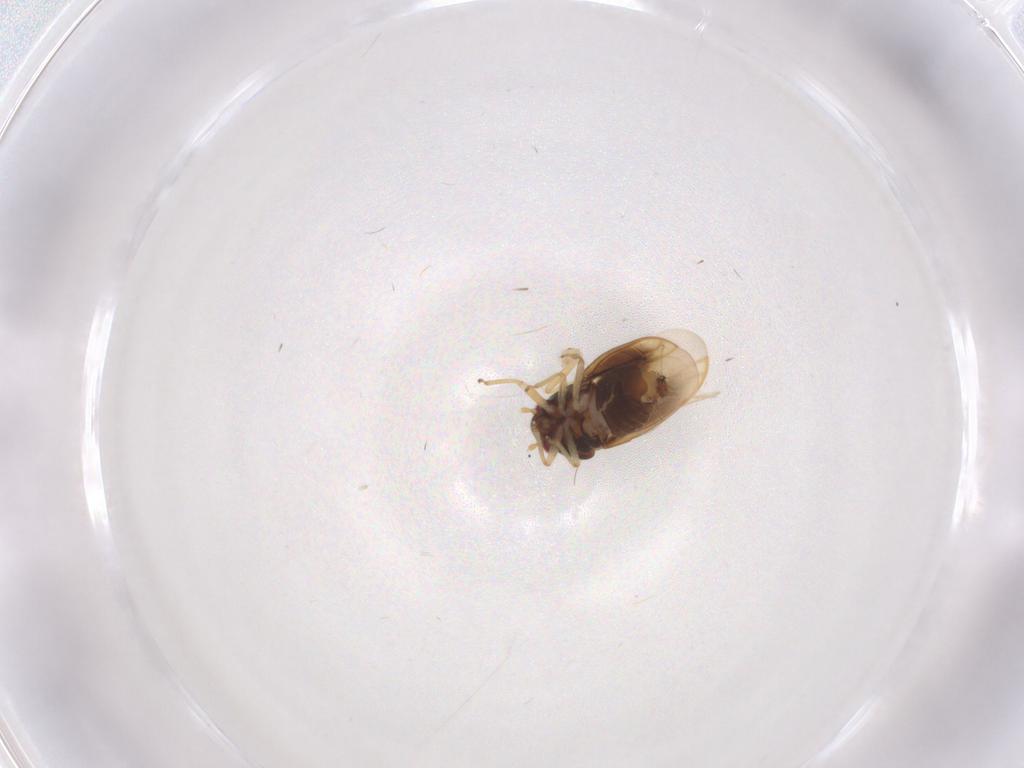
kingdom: Animalia
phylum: Arthropoda
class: Insecta
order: Hemiptera
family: Schizopteridae
